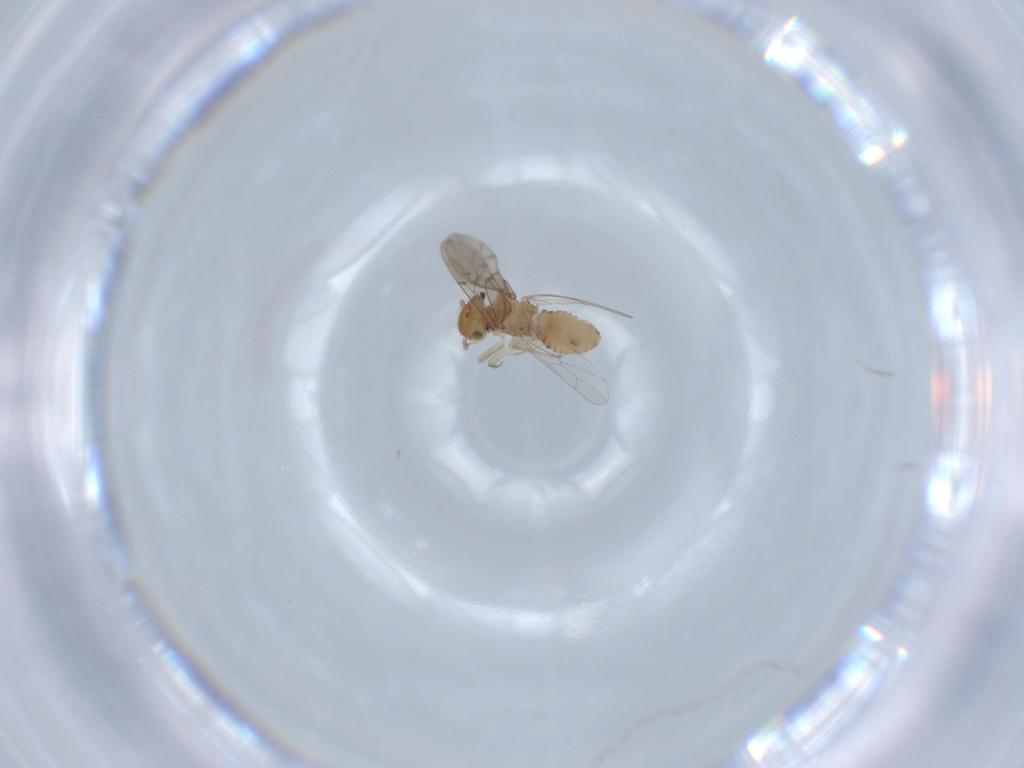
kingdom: Animalia
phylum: Arthropoda
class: Insecta
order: Psocodea
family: Ectopsocidae
